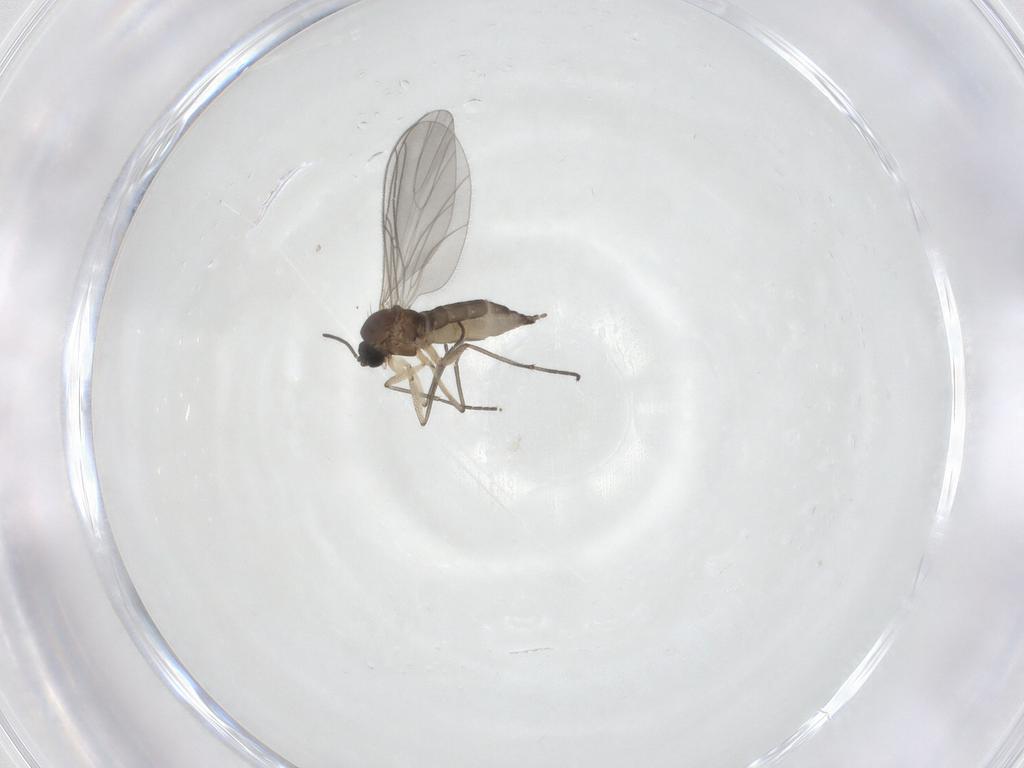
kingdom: Animalia
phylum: Arthropoda
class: Insecta
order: Diptera
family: Sciaridae
